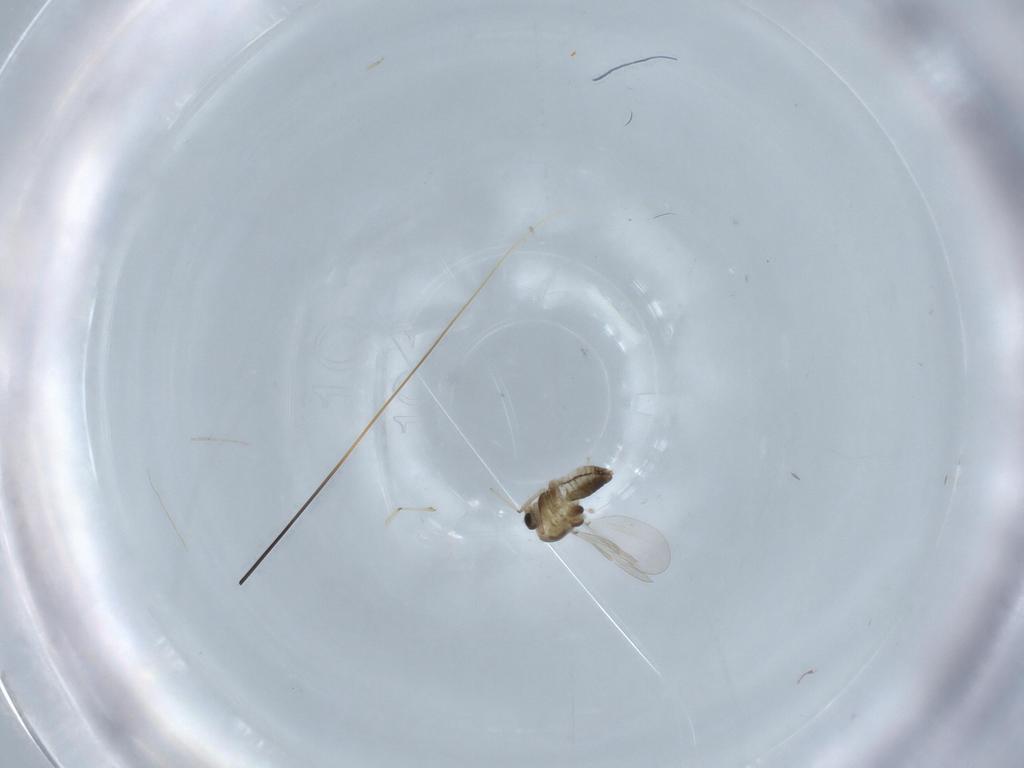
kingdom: Animalia
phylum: Arthropoda
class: Insecta
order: Diptera
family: Chironomidae
